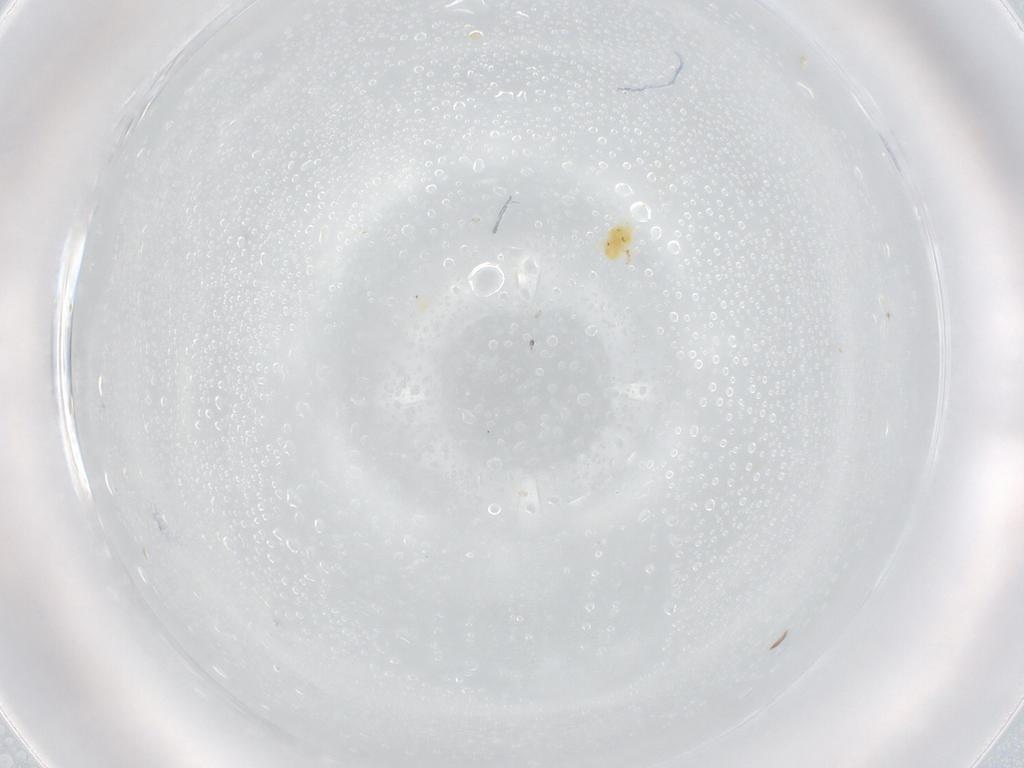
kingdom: Animalia
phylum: Arthropoda
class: Arachnida
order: Trombidiformes
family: Eupodidae
